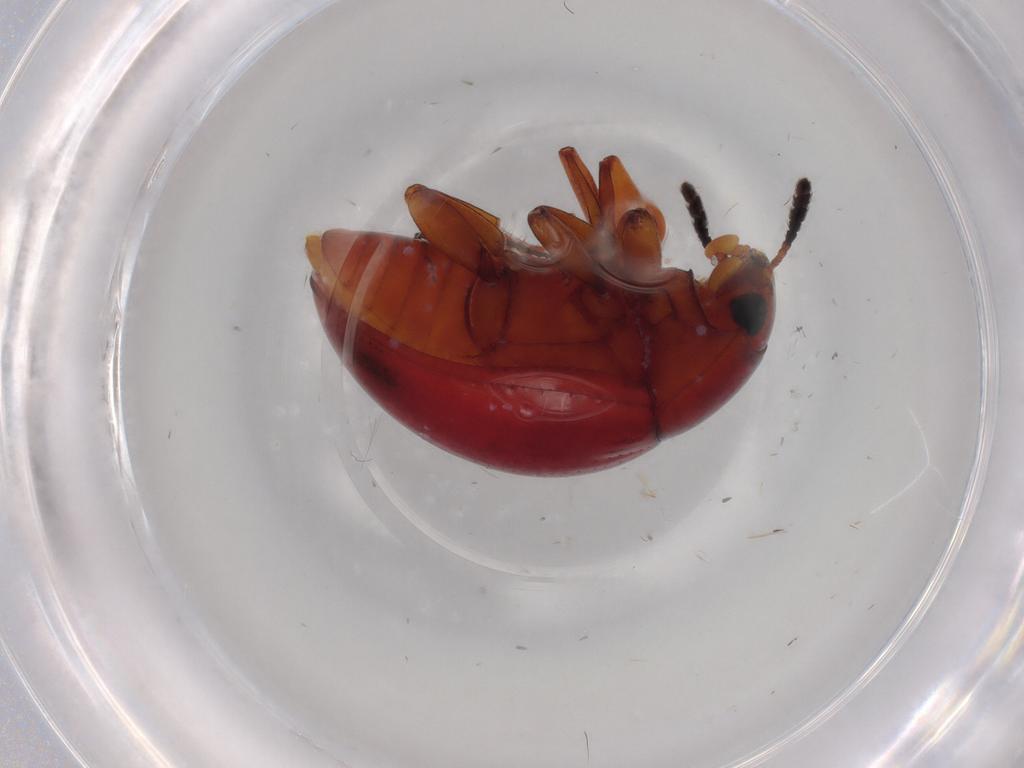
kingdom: Animalia
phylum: Arthropoda
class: Insecta
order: Coleoptera
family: Erotylidae
